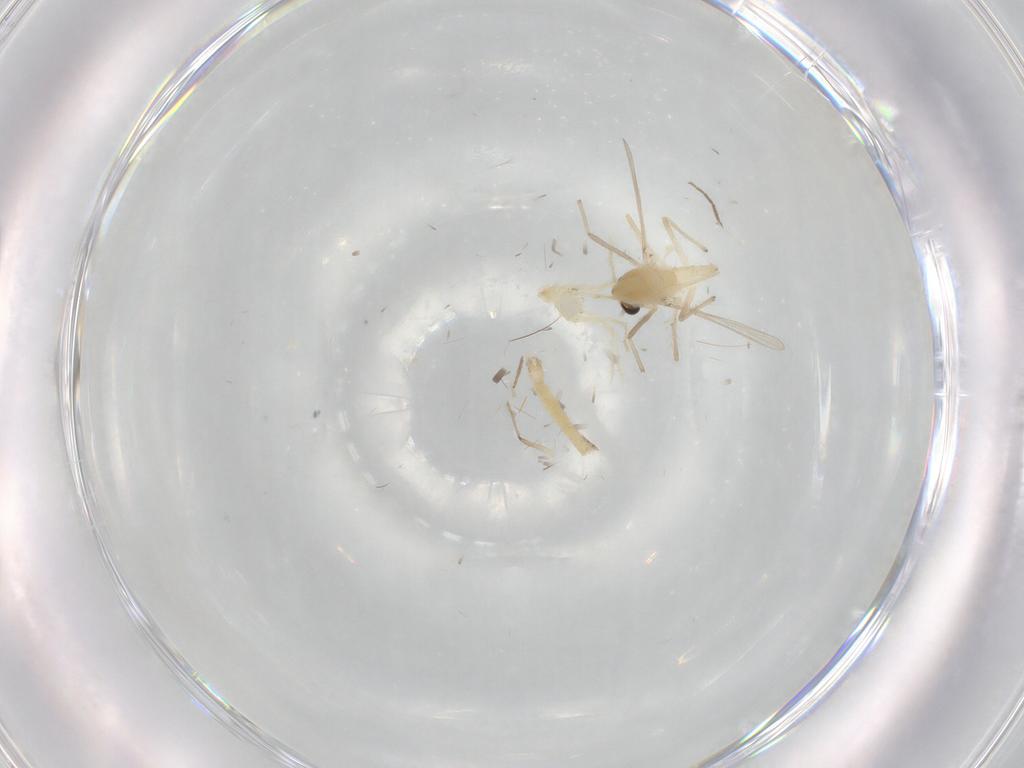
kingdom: Animalia
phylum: Arthropoda
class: Insecta
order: Diptera
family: Chironomidae
